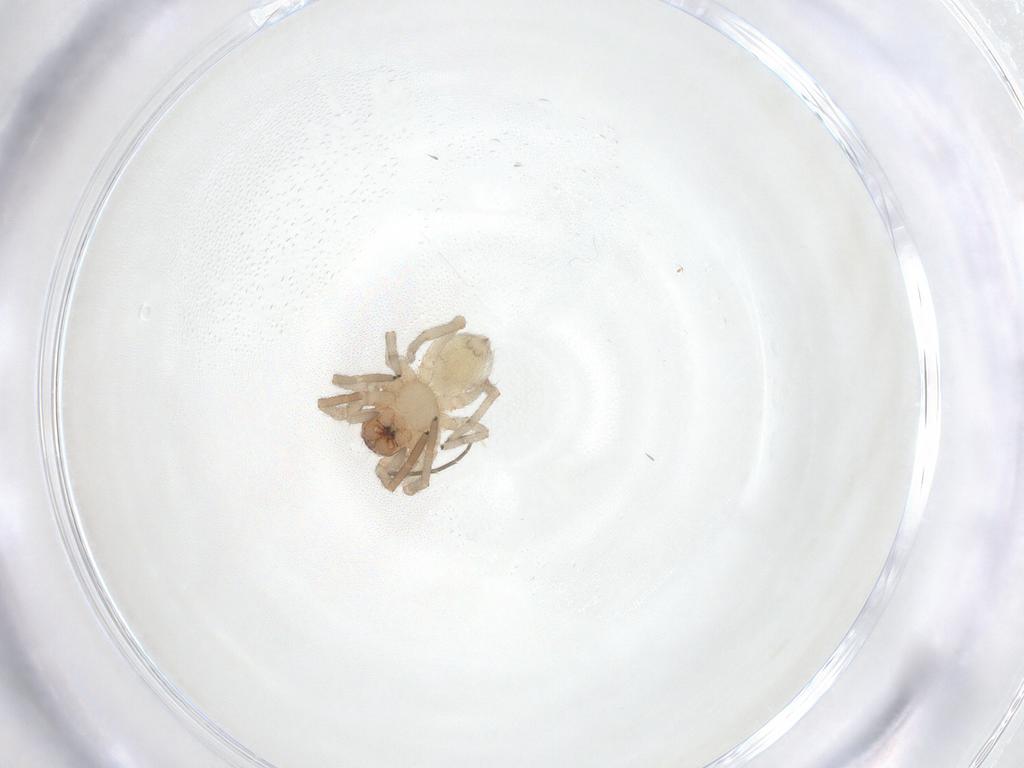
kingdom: Animalia
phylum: Arthropoda
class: Arachnida
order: Araneae
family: Trachelidae
